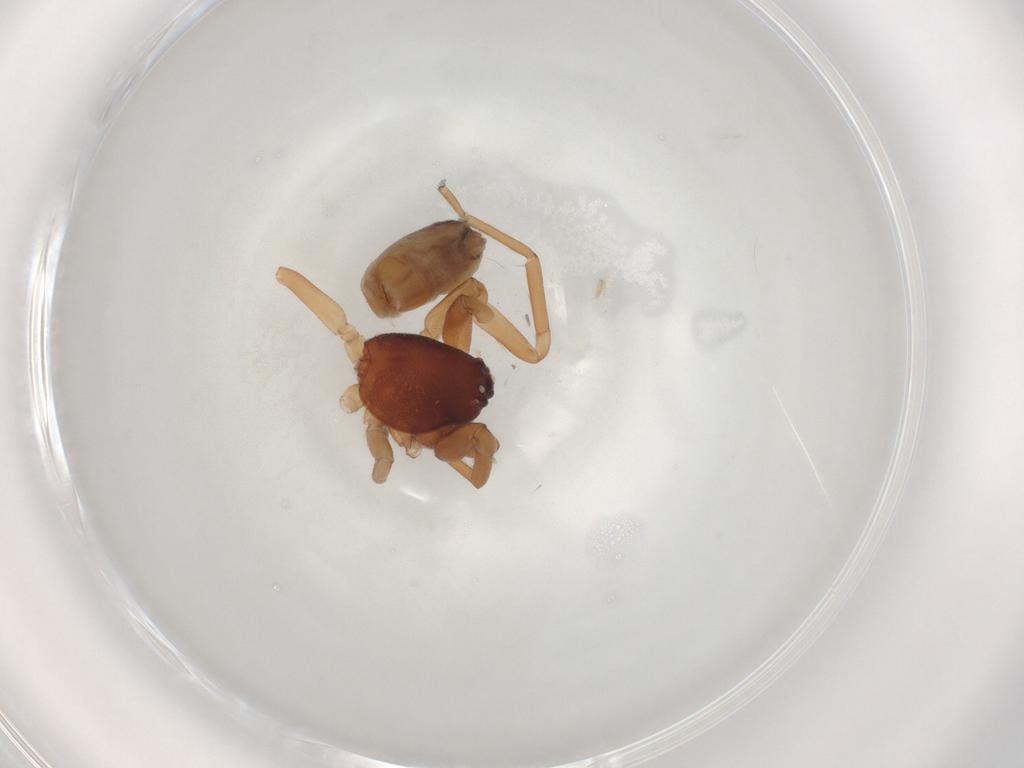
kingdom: Animalia
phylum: Arthropoda
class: Arachnida
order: Araneae
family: Trachelidae
